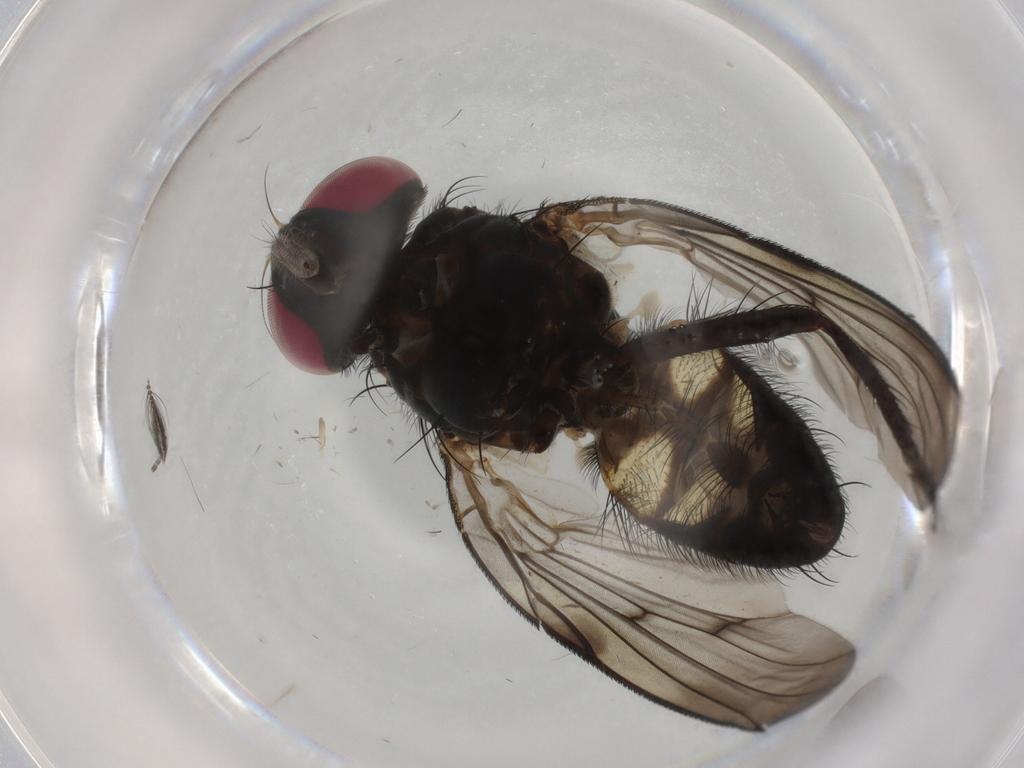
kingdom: Animalia
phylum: Arthropoda
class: Insecta
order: Diptera
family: Fannia
